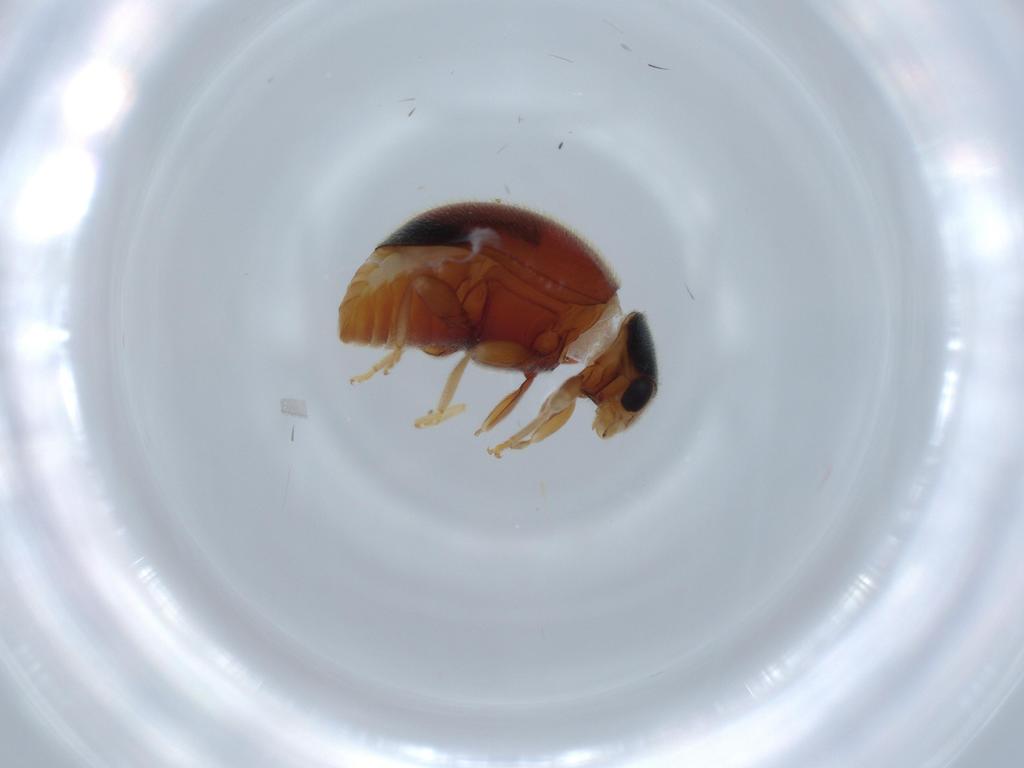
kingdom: Animalia
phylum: Arthropoda
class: Insecta
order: Coleoptera
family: Coccinellidae
